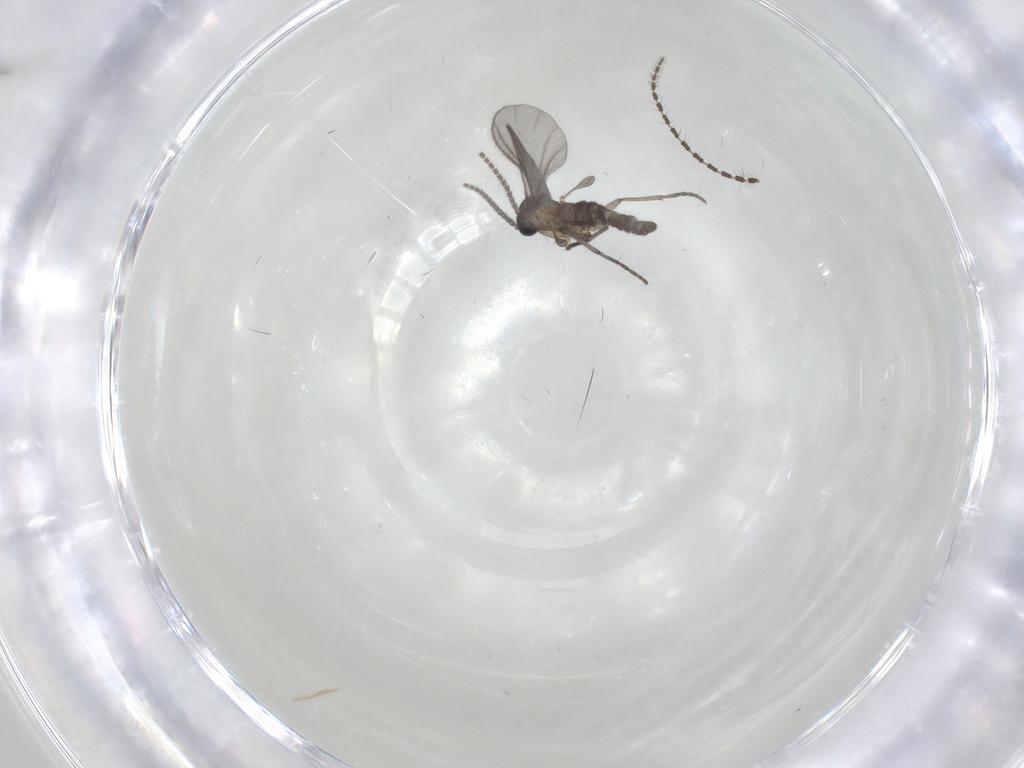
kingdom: Animalia
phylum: Arthropoda
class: Insecta
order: Diptera
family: Sciaridae
